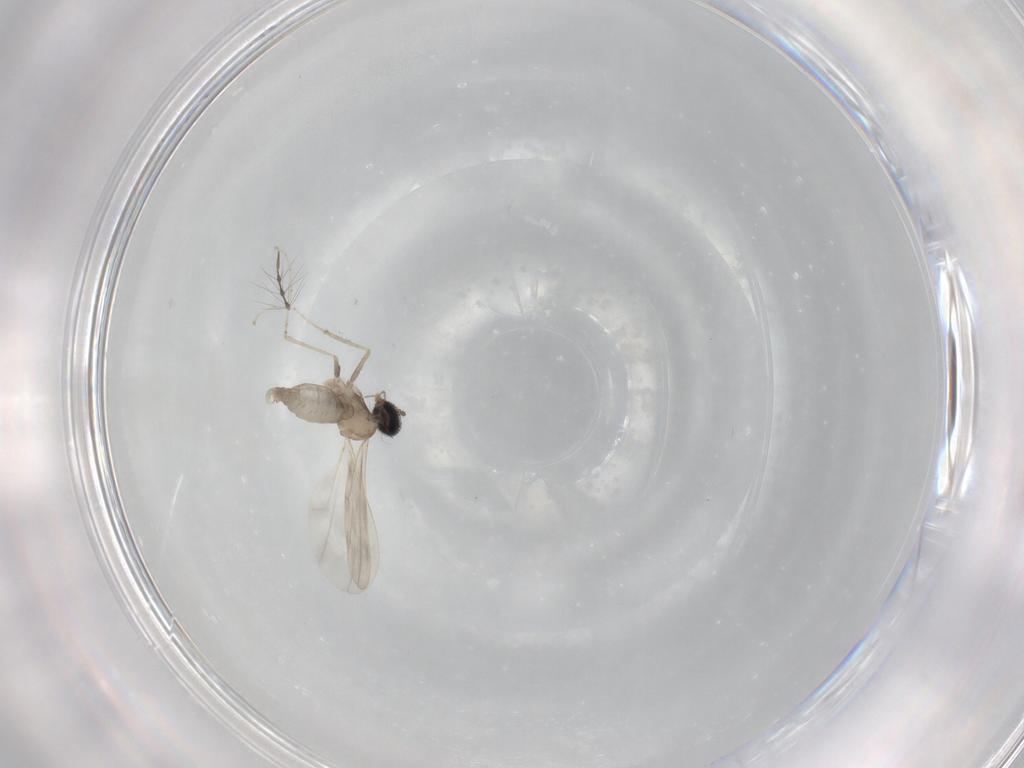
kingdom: Animalia
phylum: Arthropoda
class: Insecta
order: Diptera
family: Cecidomyiidae
